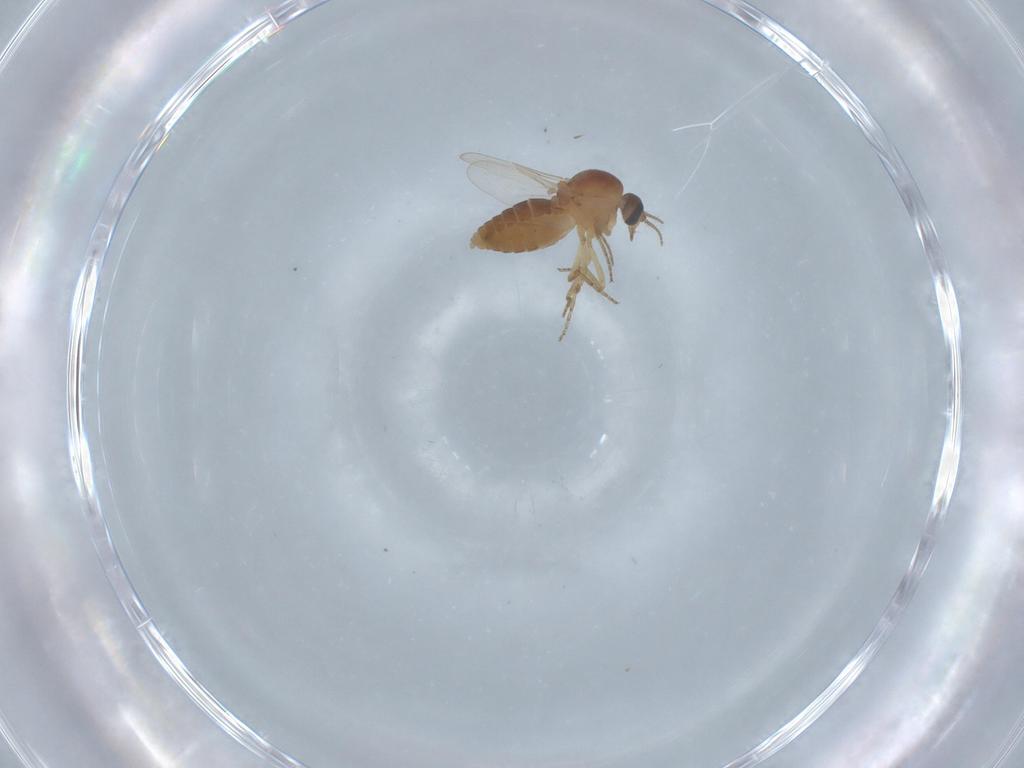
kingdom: Animalia
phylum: Arthropoda
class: Insecta
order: Diptera
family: Ceratopogonidae
